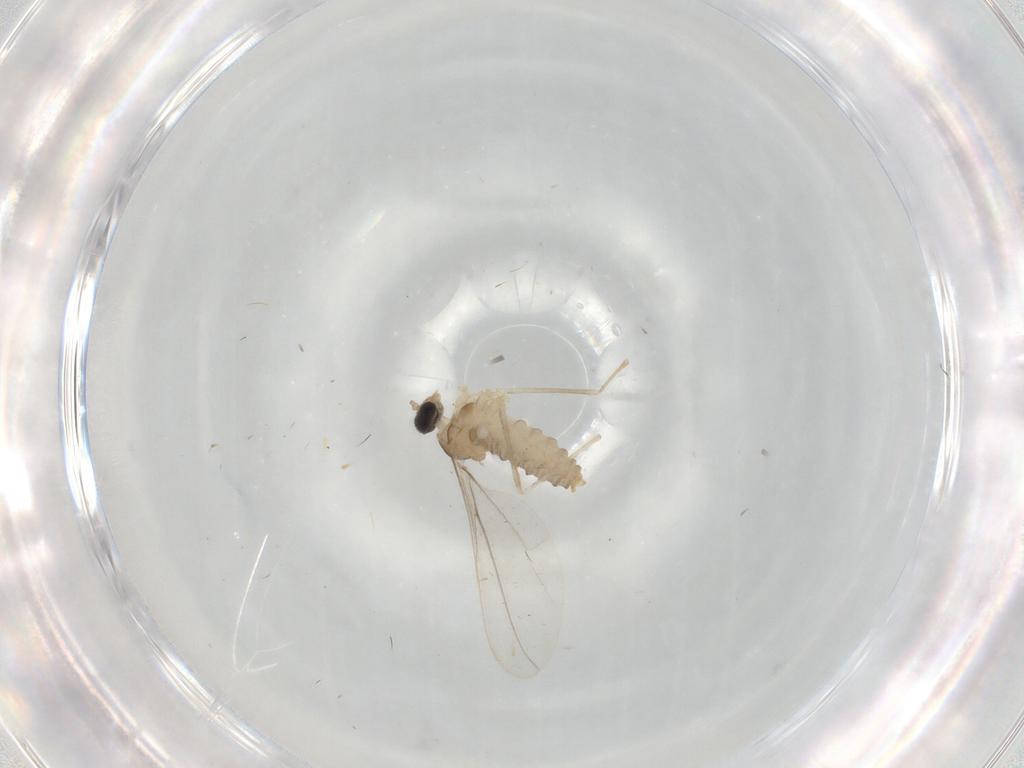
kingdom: Animalia
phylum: Arthropoda
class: Insecta
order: Diptera
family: Cecidomyiidae
